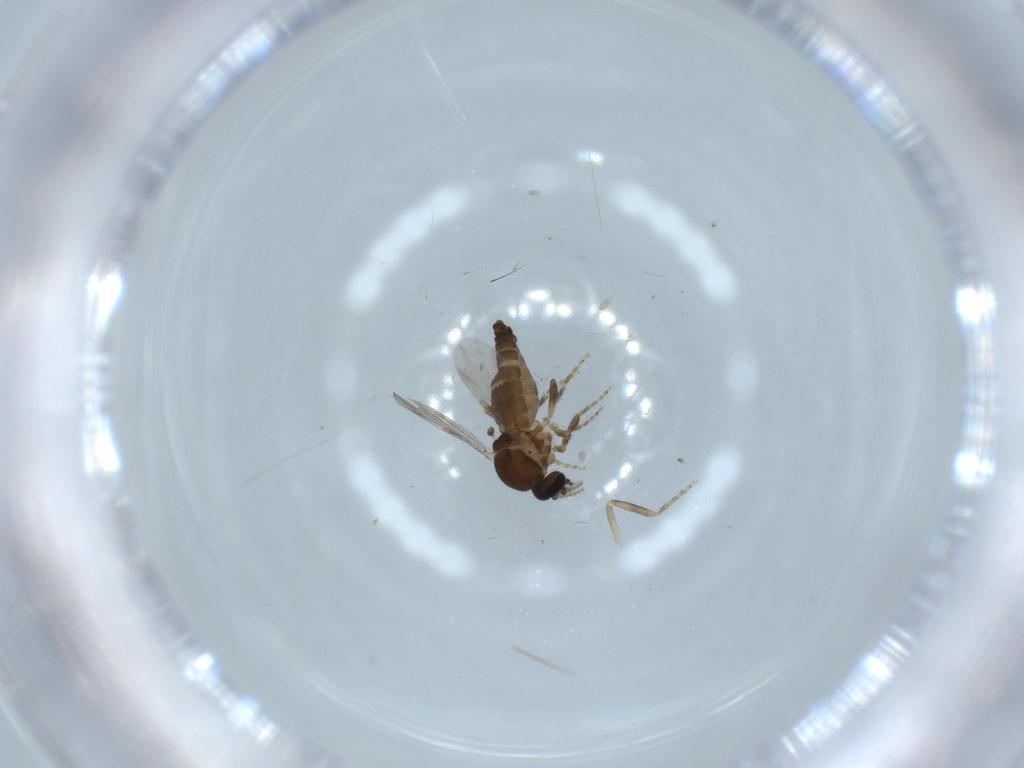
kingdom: Animalia
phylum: Arthropoda
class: Insecta
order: Diptera
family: Ceratopogonidae
